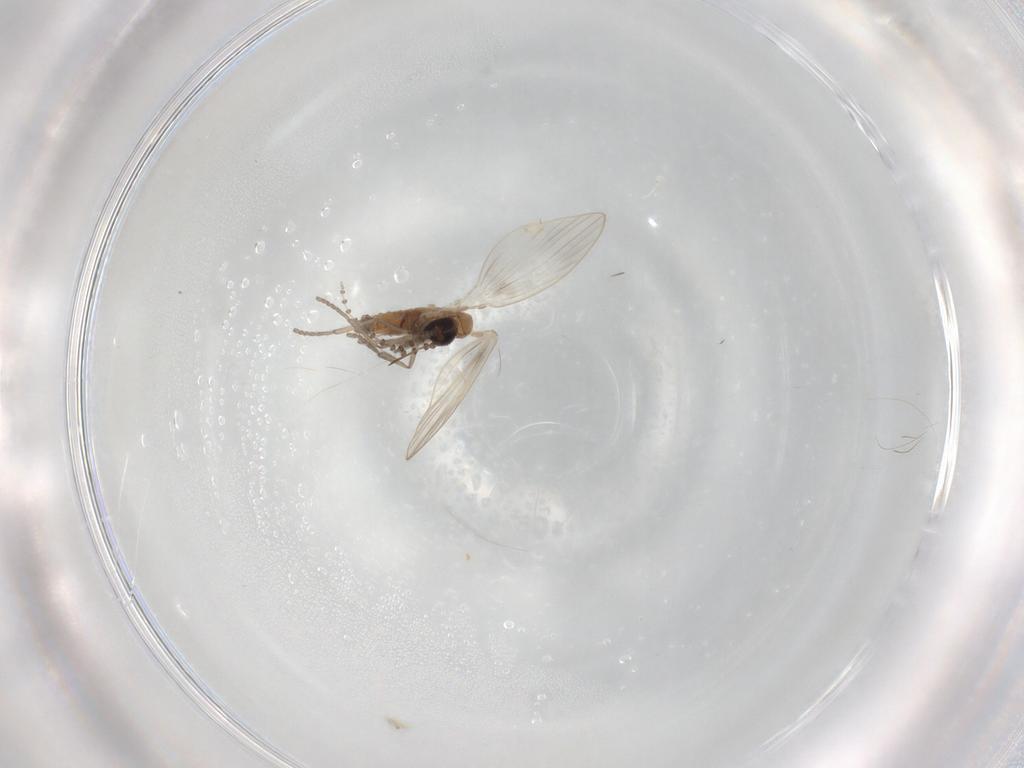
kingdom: Animalia
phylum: Arthropoda
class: Insecta
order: Diptera
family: Psychodidae
